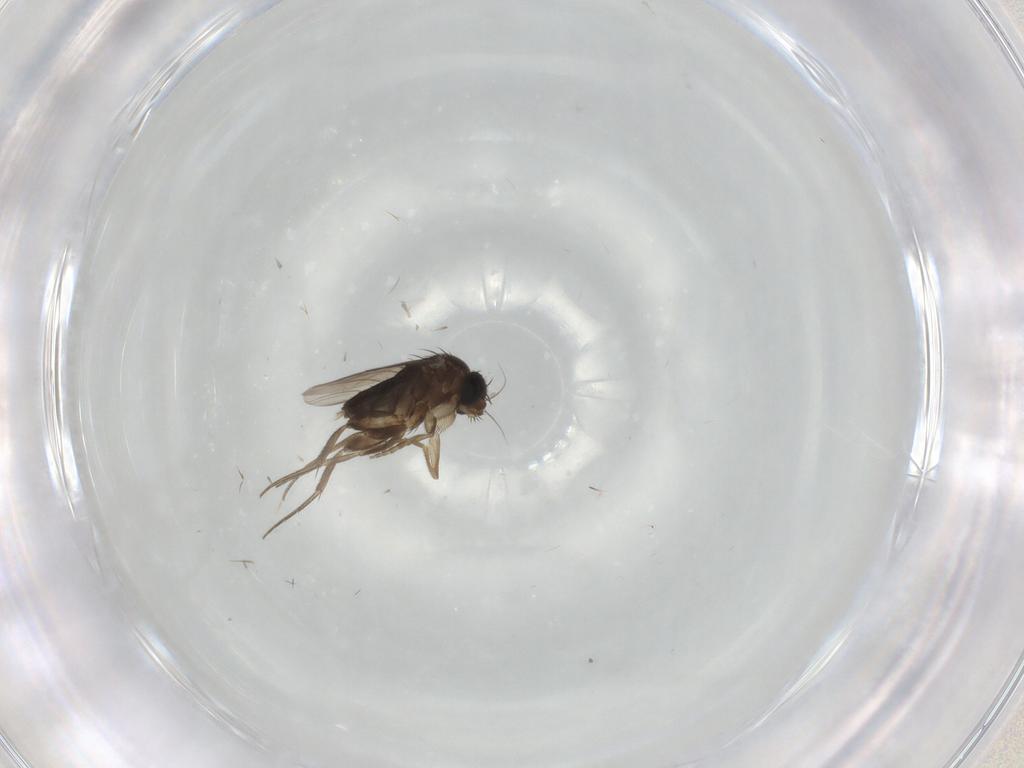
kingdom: Animalia
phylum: Arthropoda
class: Insecta
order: Diptera
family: Phoridae
